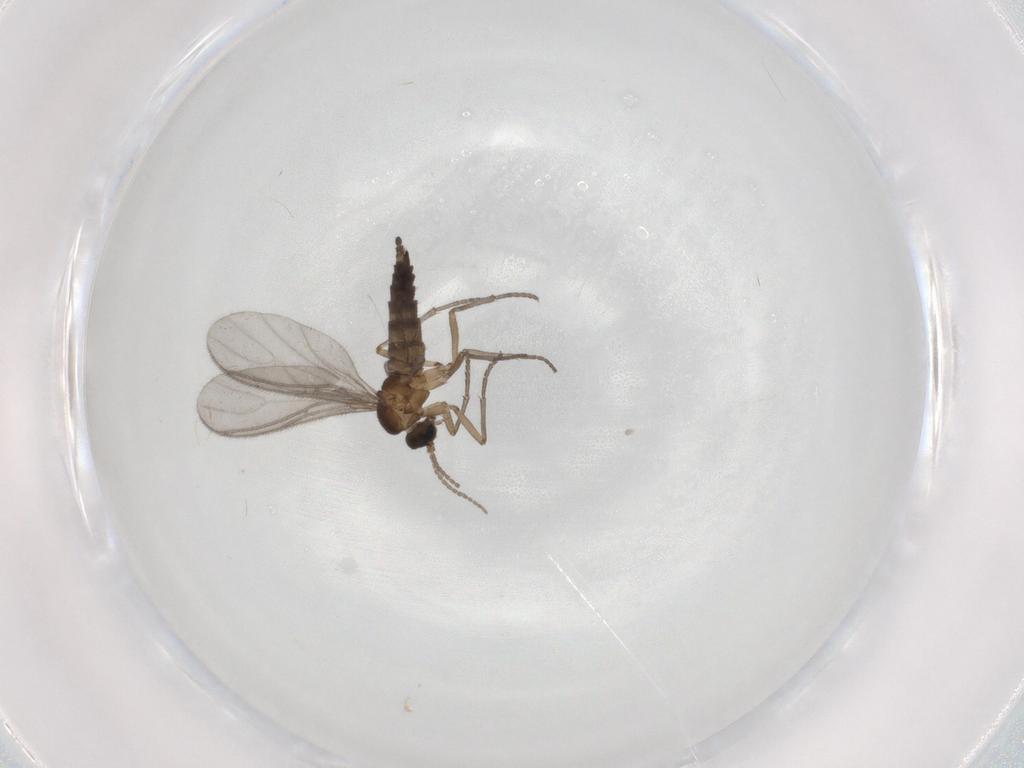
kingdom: Animalia
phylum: Arthropoda
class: Insecta
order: Diptera
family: Sciaridae
